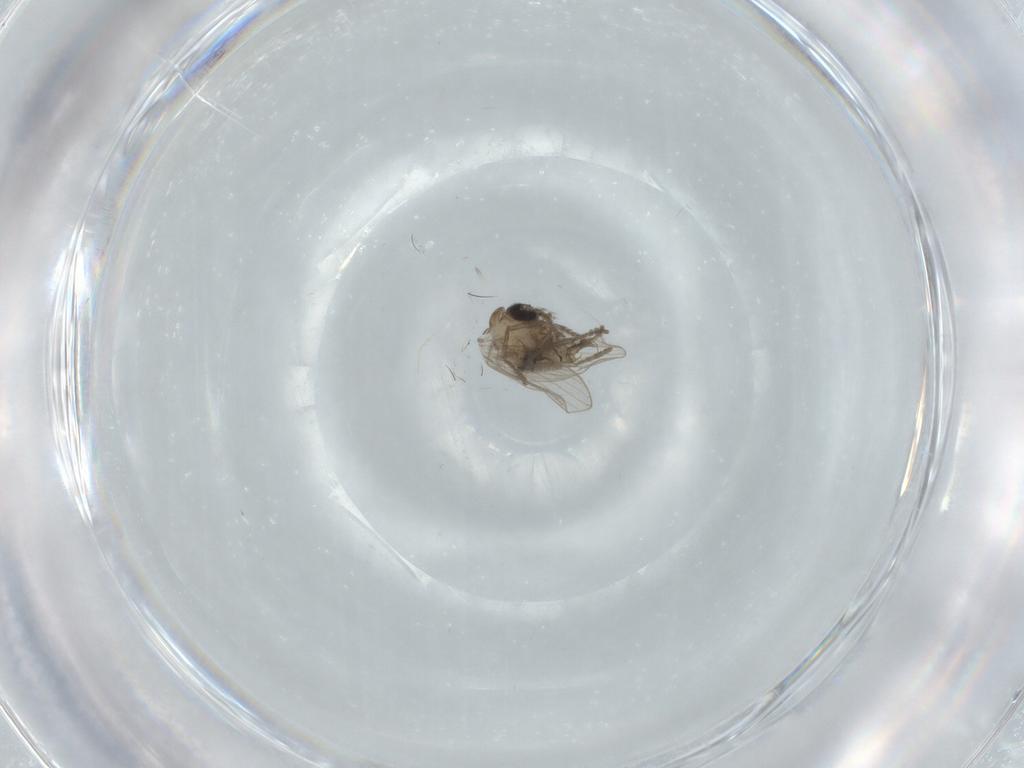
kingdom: Animalia
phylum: Arthropoda
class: Insecta
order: Diptera
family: Psychodidae
